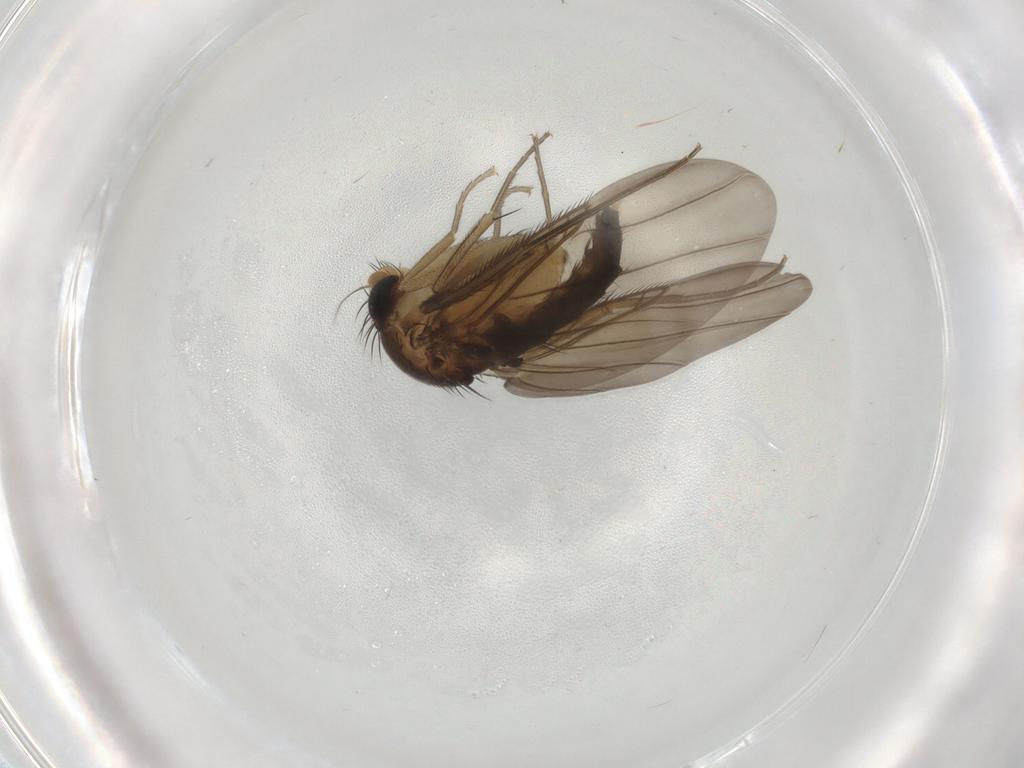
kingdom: Animalia
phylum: Arthropoda
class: Insecta
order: Diptera
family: Phoridae
